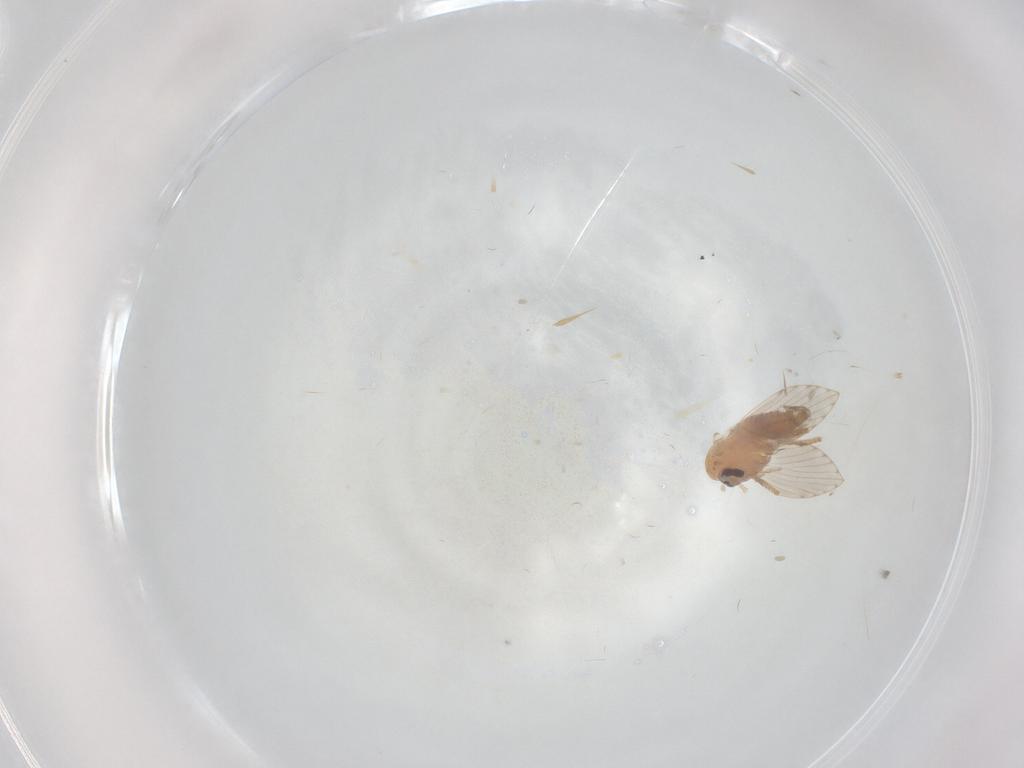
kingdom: Animalia
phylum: Arthropoda
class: Insecta
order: Diptera
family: Psychodidae
